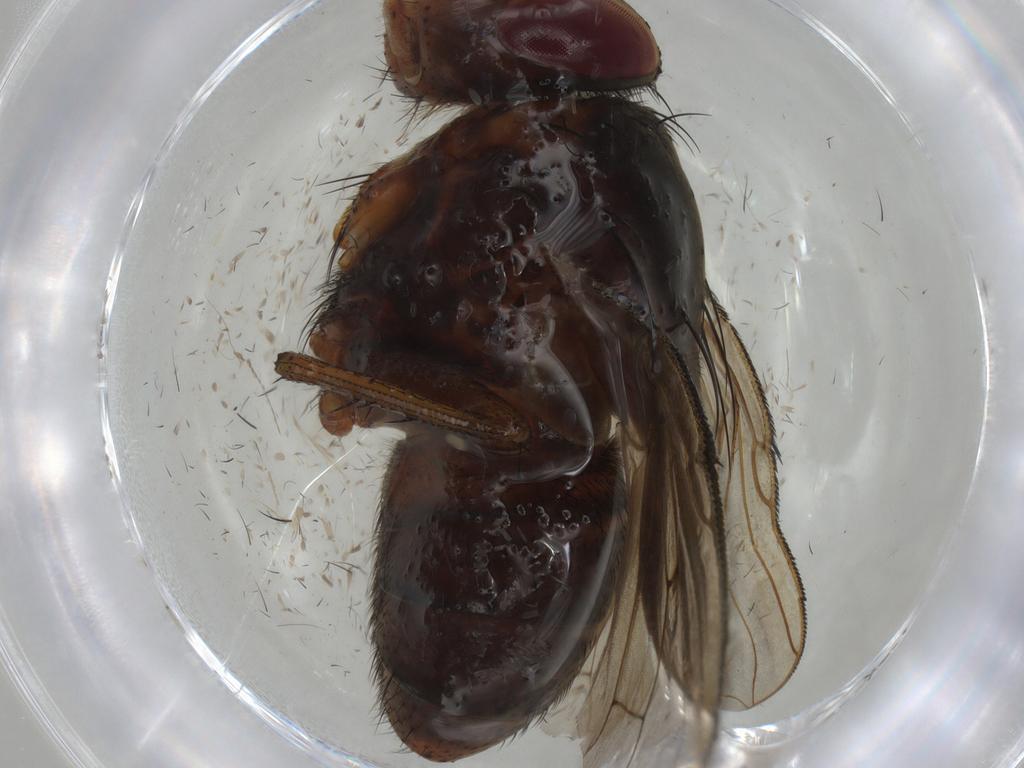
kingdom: Animalia
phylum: Arthropoda
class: Insecta
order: Diptera
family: Tachinidae
